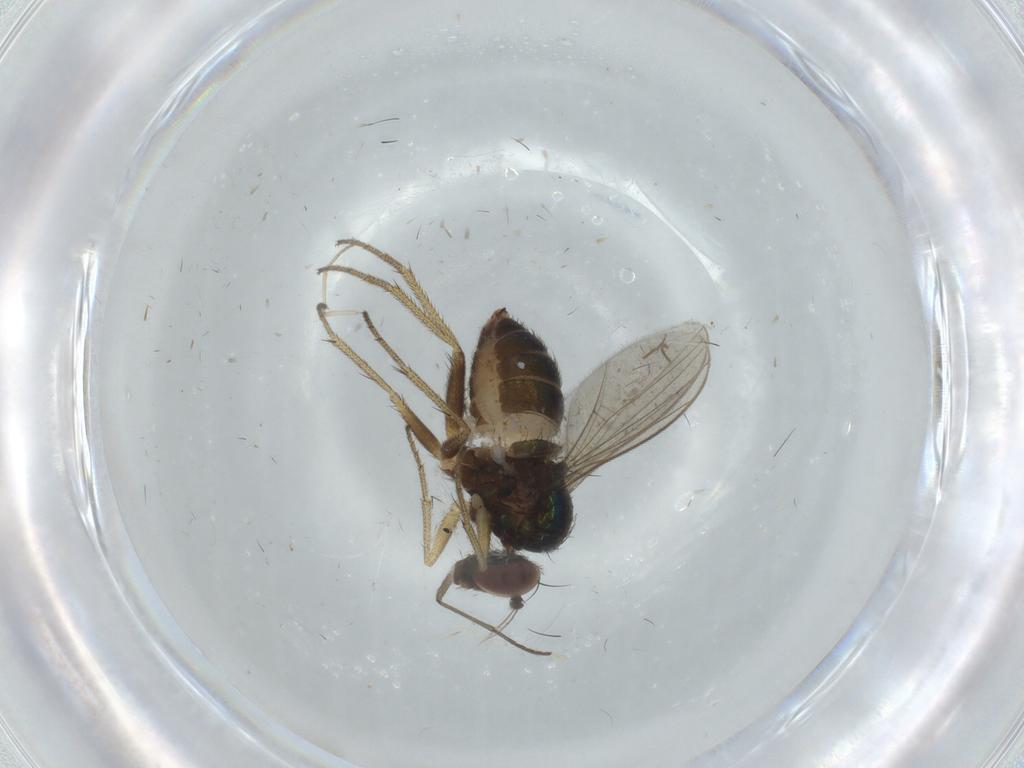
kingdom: Animalia
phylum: Arthropoda
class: Insecta
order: Diptera
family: Cecidomyiidae
